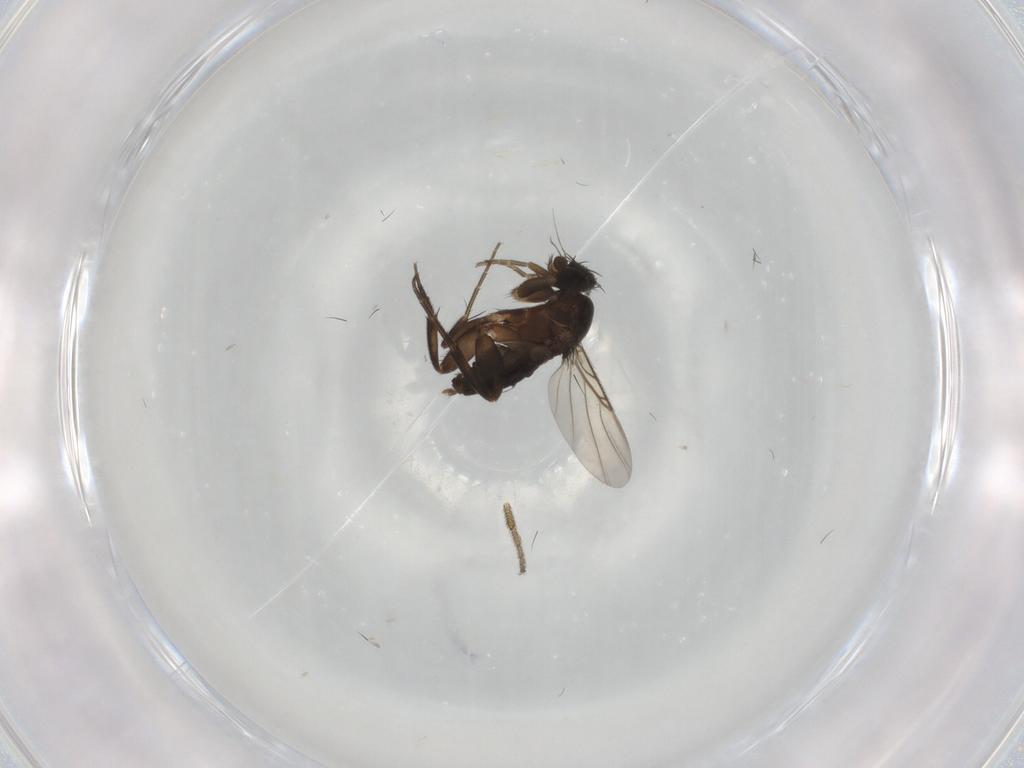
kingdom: Animalia
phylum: Arthropoda
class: Insecta
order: Diptera
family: Phoridae
